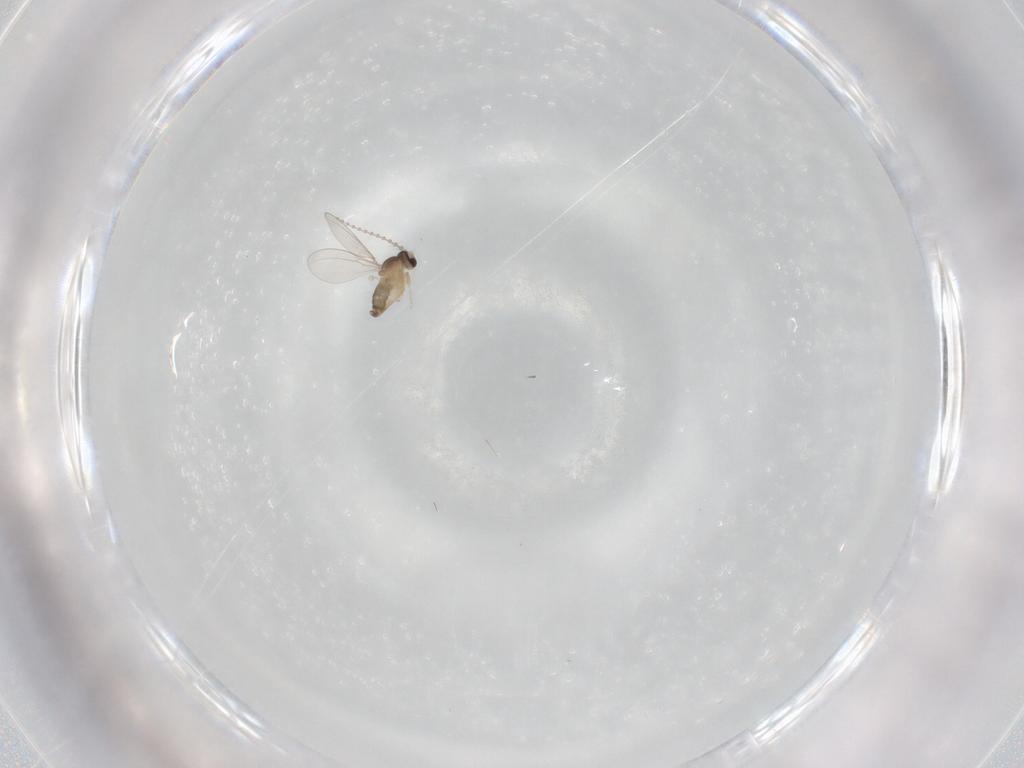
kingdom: Animalia
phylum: Arthropoda
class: Insecta
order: Diptera
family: Cecidomyiidae
